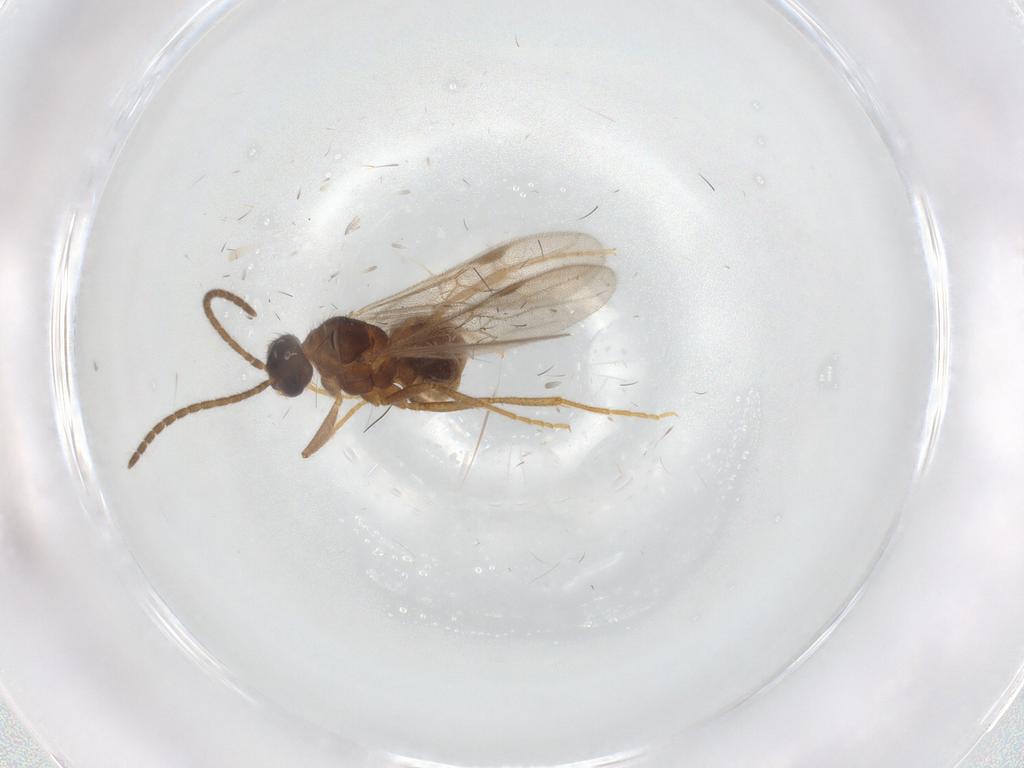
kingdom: Animalia
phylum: Arthropoda
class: Insecta
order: Hymenoptera
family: Formicidae
